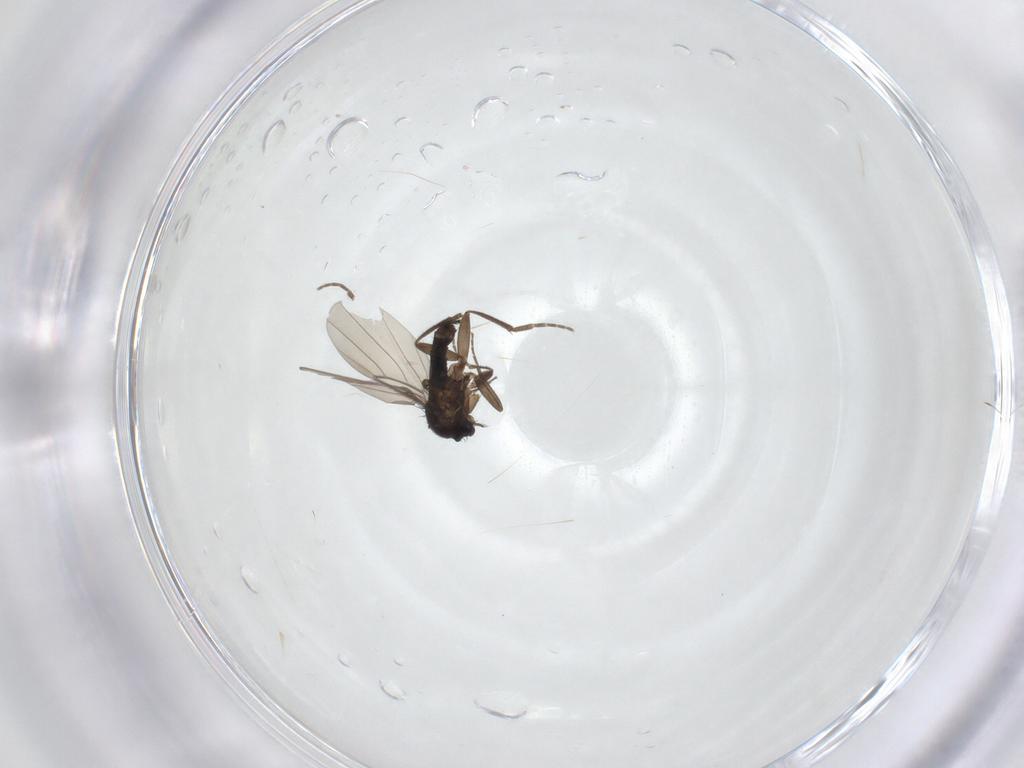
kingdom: Animalia
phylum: Arthropoda
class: Insecta
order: Diptera
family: Tachinidae
